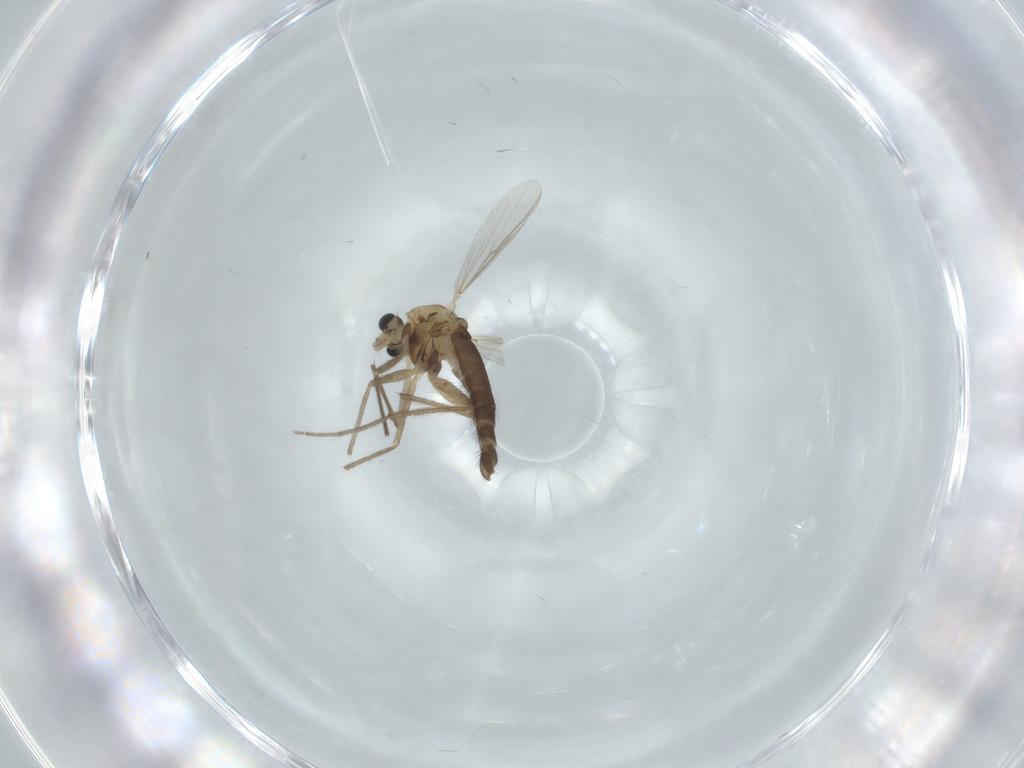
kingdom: Animalia
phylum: Arthropoda
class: Insecta
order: Diptera
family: Chironomidae
